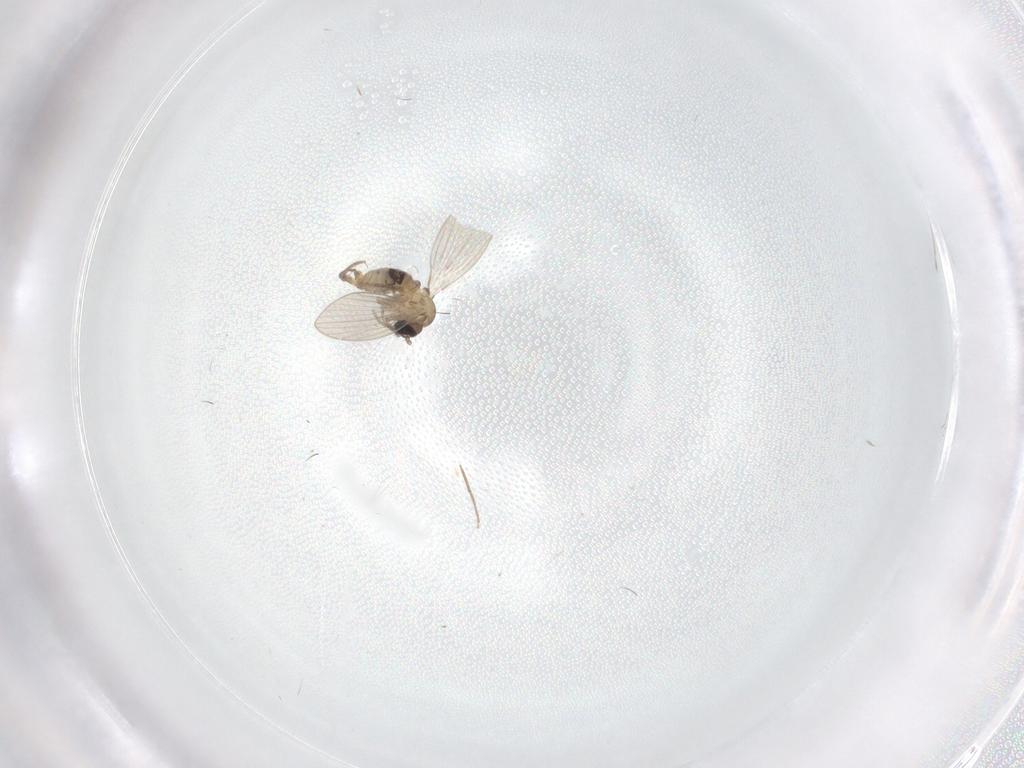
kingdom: Animalia
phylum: Arthropoda
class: Insecta
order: Diptera
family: Psychodidae
